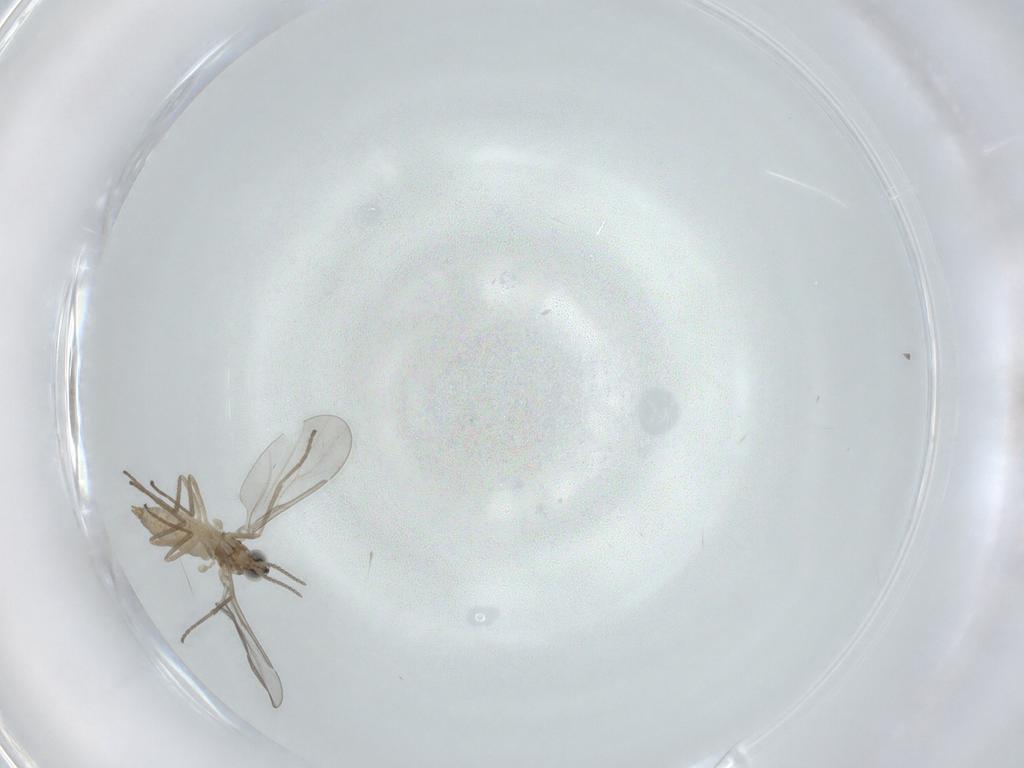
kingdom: Animalia
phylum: Arthropoda
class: Insecta
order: Diptera
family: Cecidomyiidae
